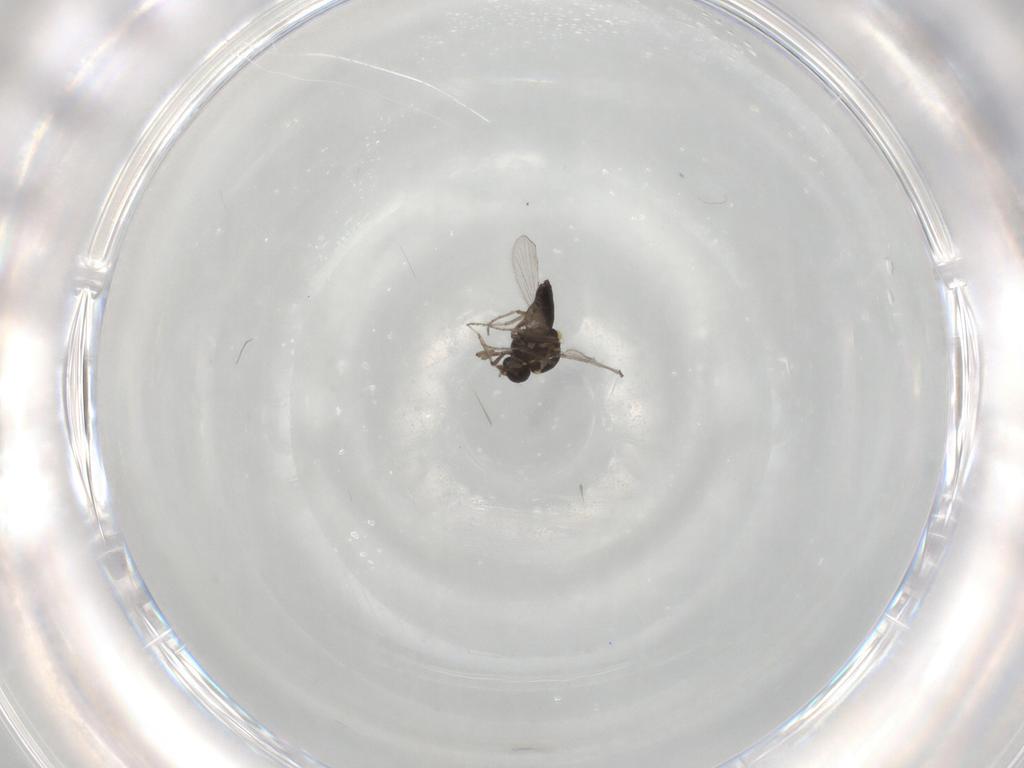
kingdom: Animalia
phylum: Arthropoda
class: Insecta
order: Diptera
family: Ceratopogonidae
